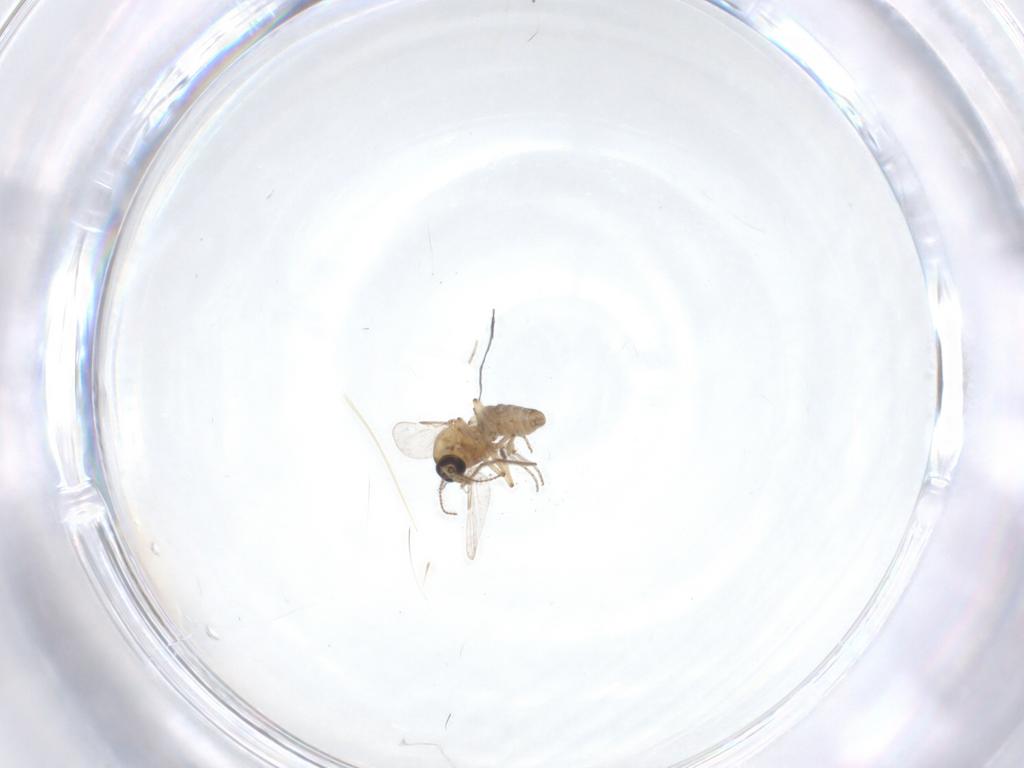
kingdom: Animalia
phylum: Arthropoda
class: Insecta
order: Diptera
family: Ceratopogonidae
